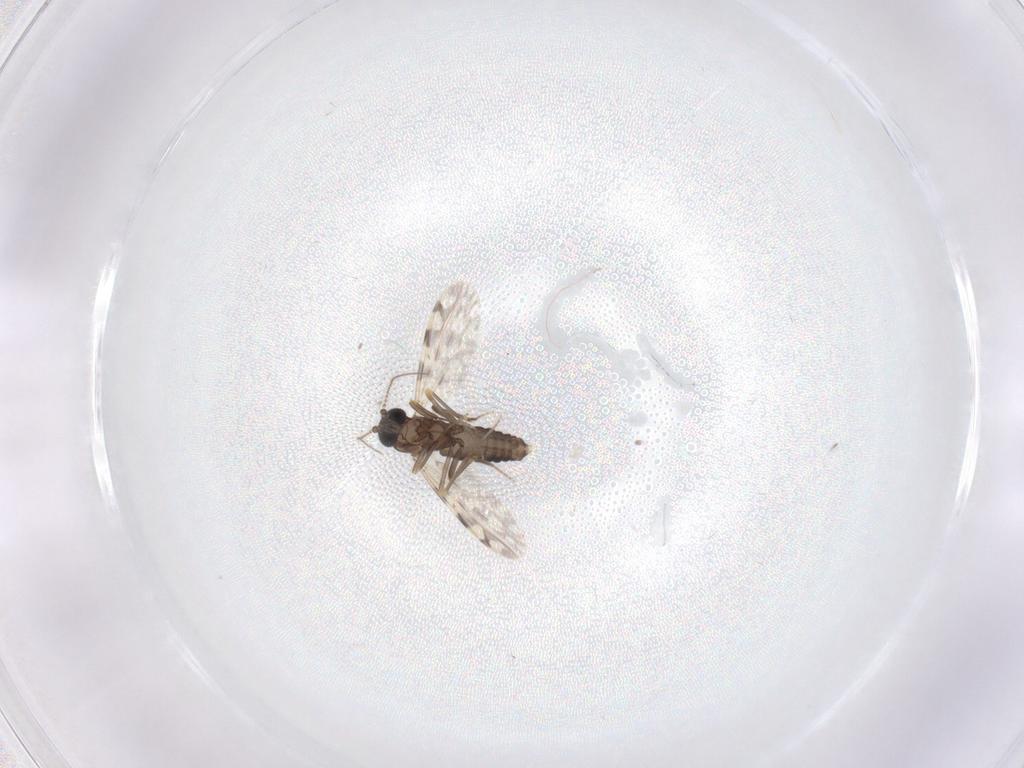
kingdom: Animalia
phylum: Arthropoda
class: Insecta
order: Diptera
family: Ceratopogonidae
